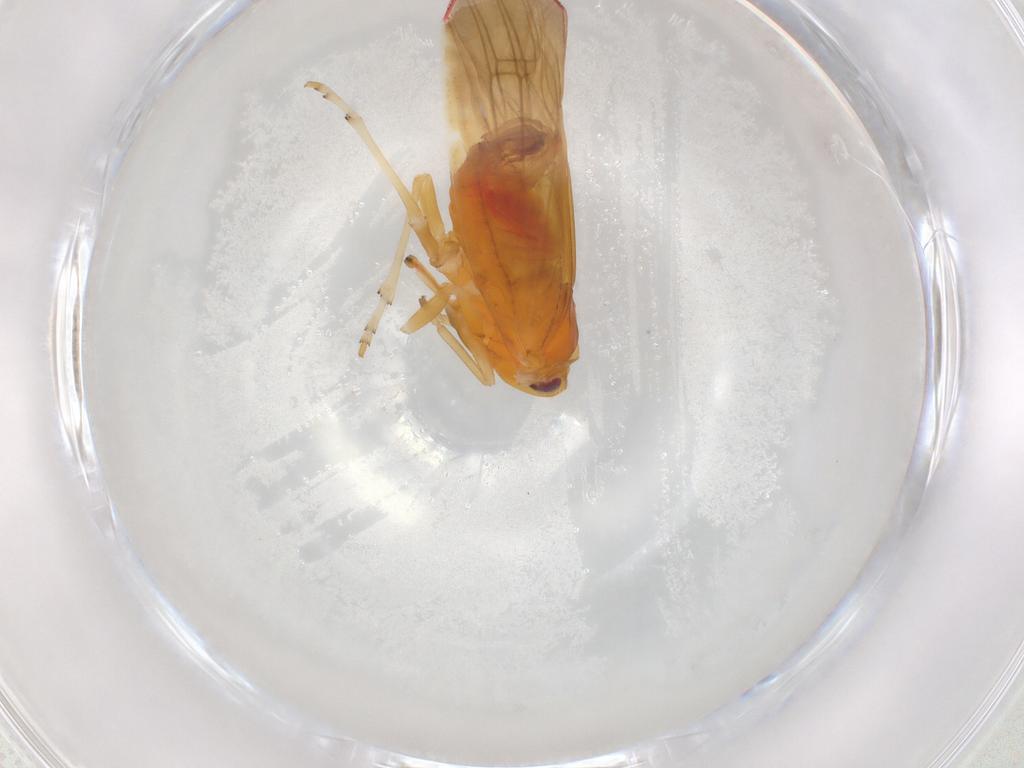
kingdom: Animalia
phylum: Arthropoda
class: Insecta
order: Hemiptera
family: Derbidae
